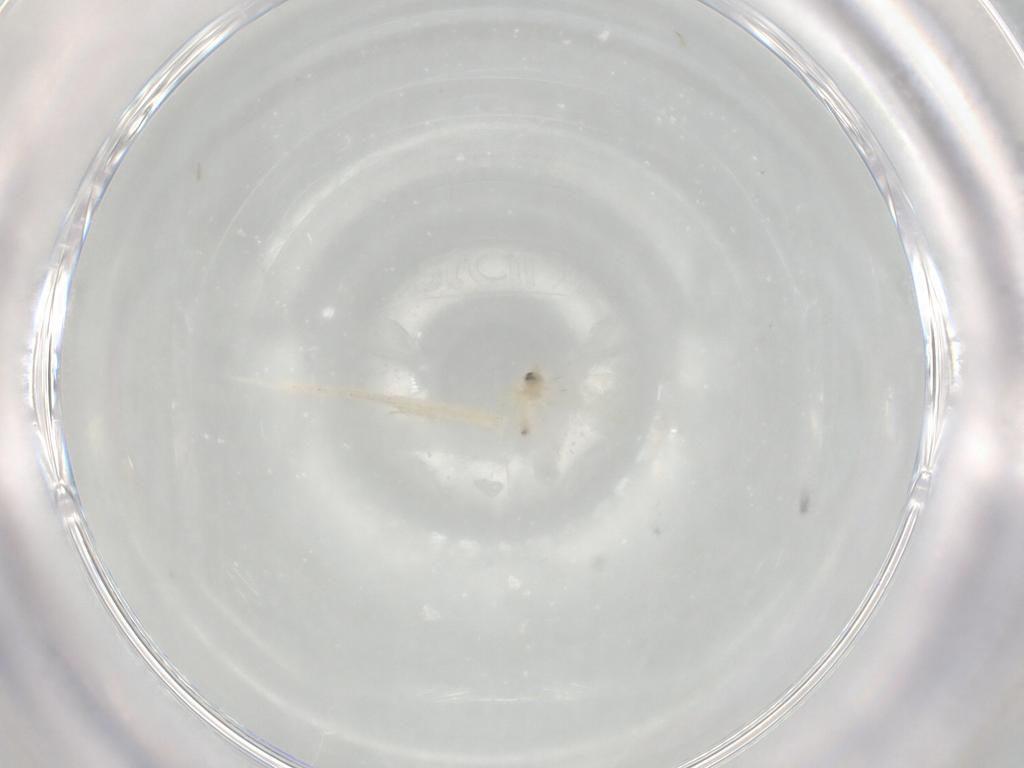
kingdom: Animalia
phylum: Arthropoda
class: Insecta
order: Hemiptera
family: Aleyrodidae
